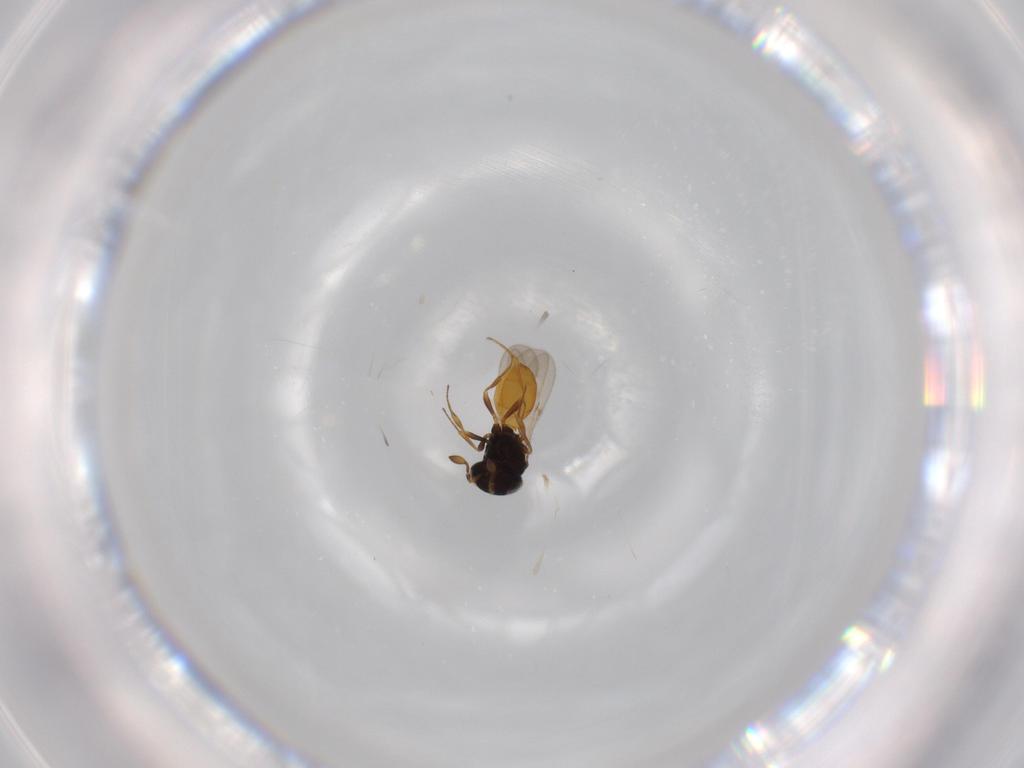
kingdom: Animalia
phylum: Arthropoda
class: Insecta
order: Hymenoptera
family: Scelionidae
